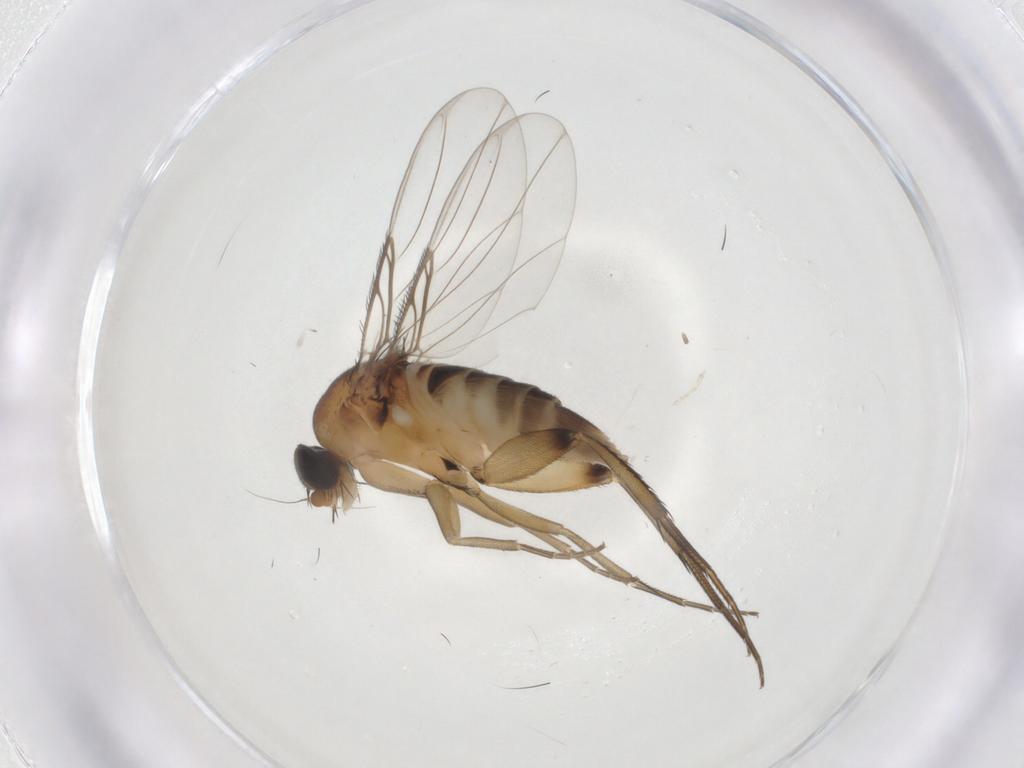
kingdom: Animalia
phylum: Arthropoda
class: Insecta
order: Diptera
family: Phoridae
